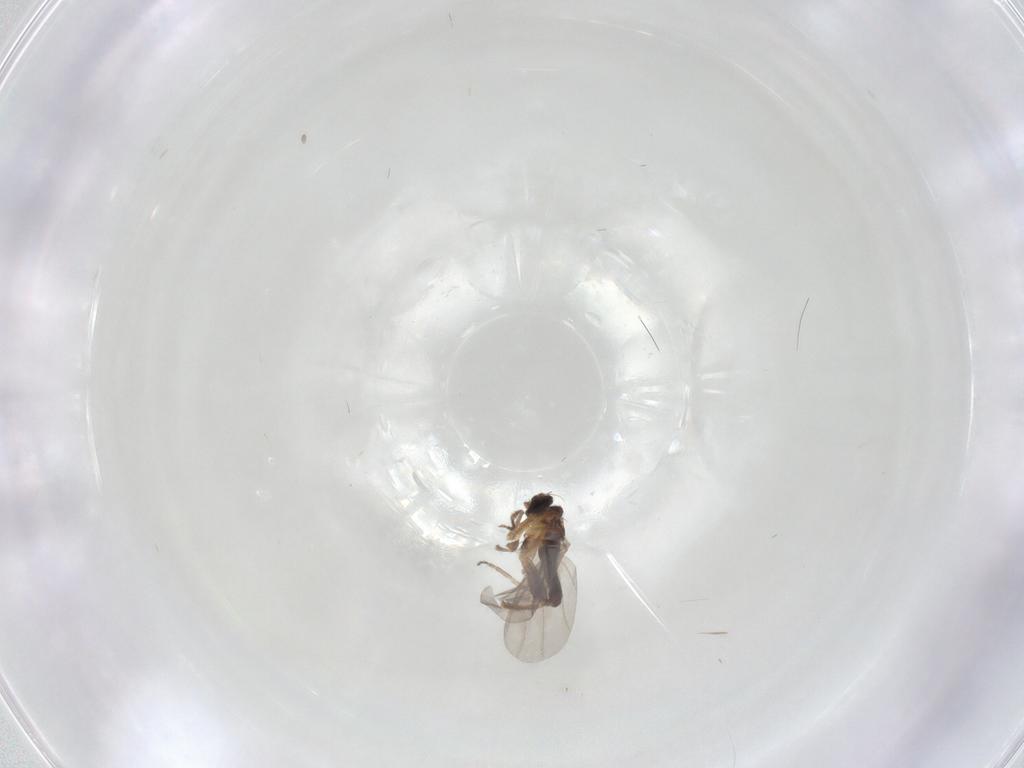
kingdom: Animalia
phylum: Arthropoda
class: Insecta
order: Diptera
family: Phoridae
